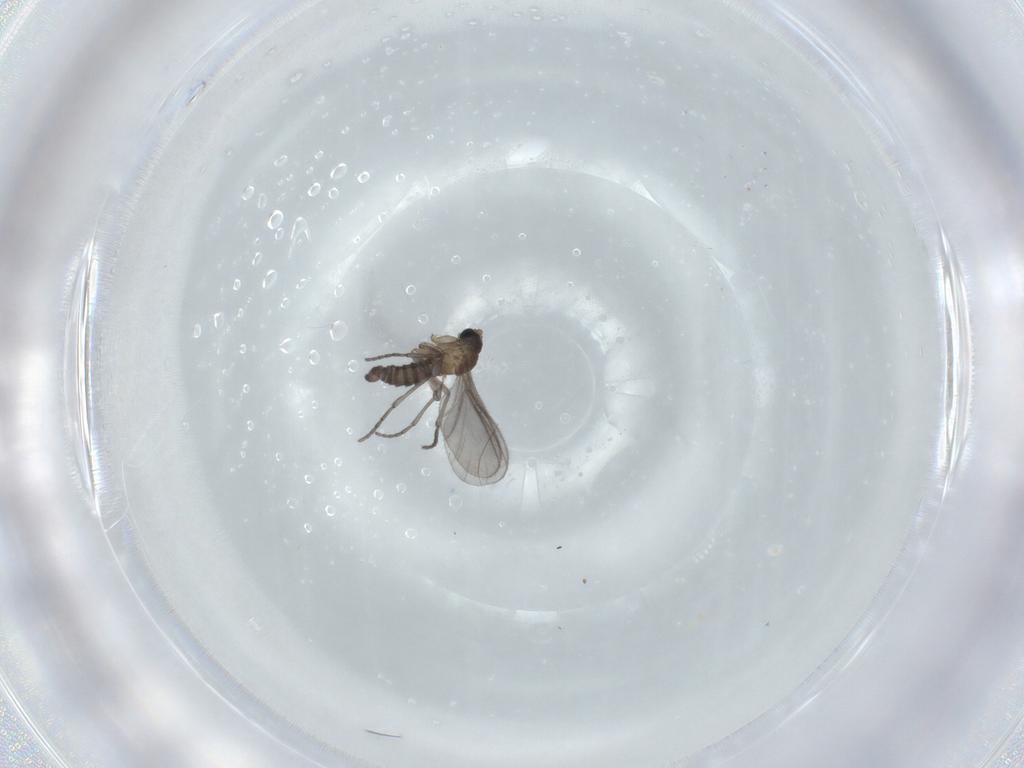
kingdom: Animalia
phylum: Arthropoda
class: Insecta
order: Diptera
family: Sciaridae
